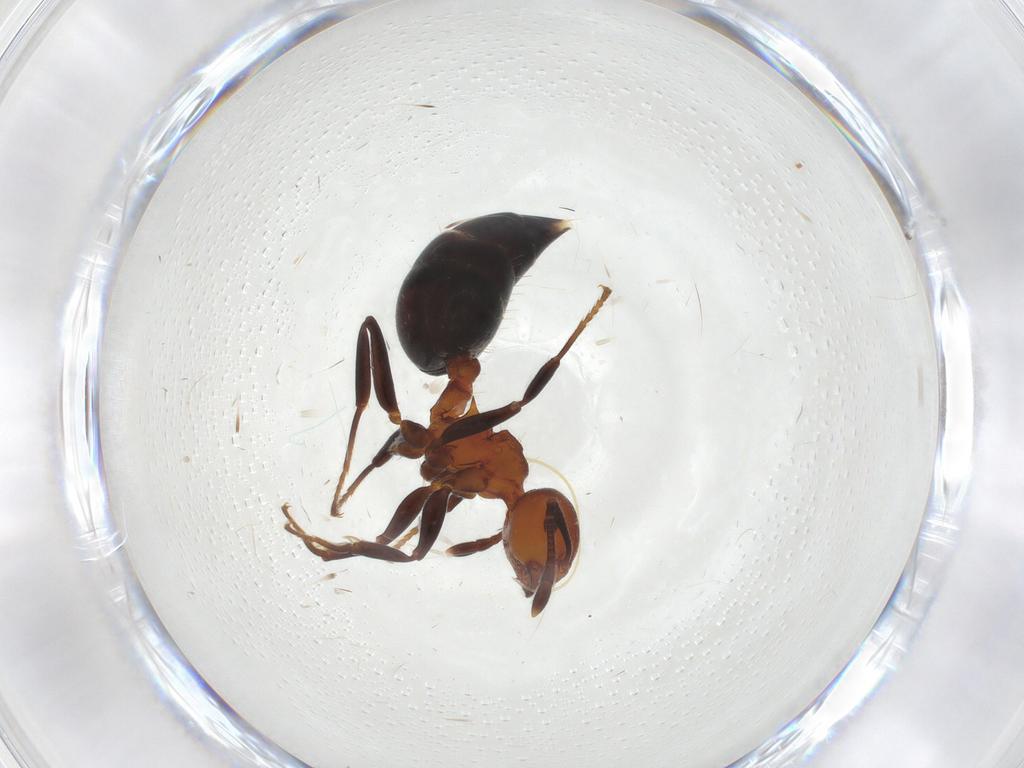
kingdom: Animalia
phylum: Arthropoda
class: Insecta
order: Hymenoptera
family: Formicidae
